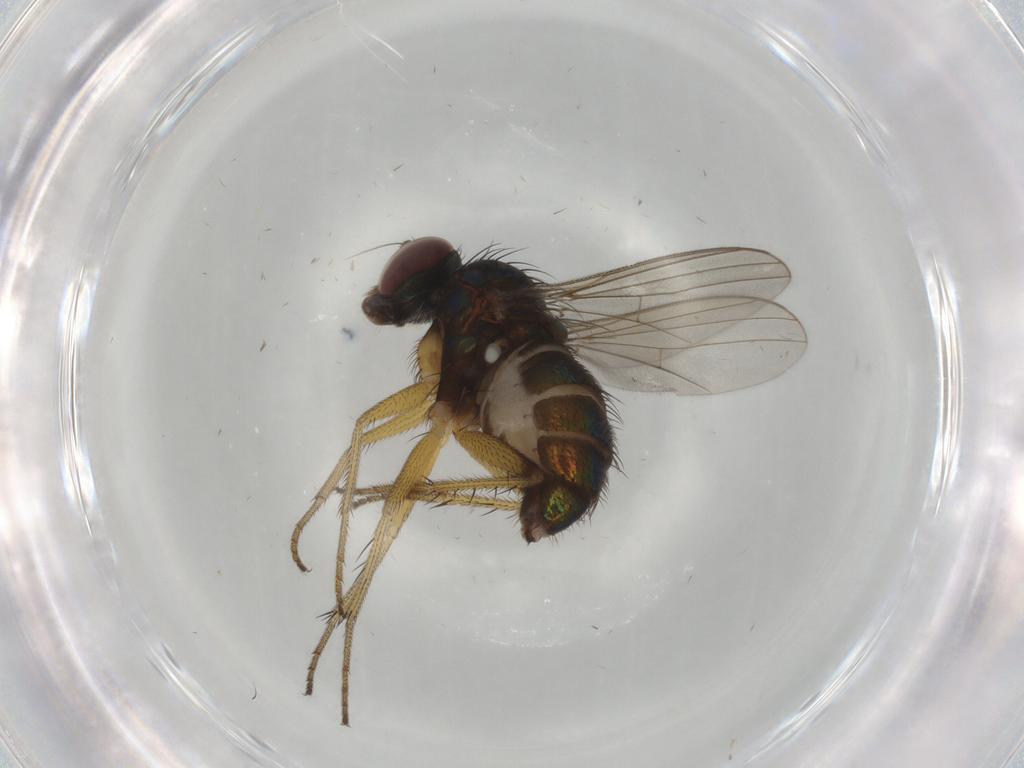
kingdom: Animalia
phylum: Arthropoda
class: Insecta
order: Diptera
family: Dolichopodidae
